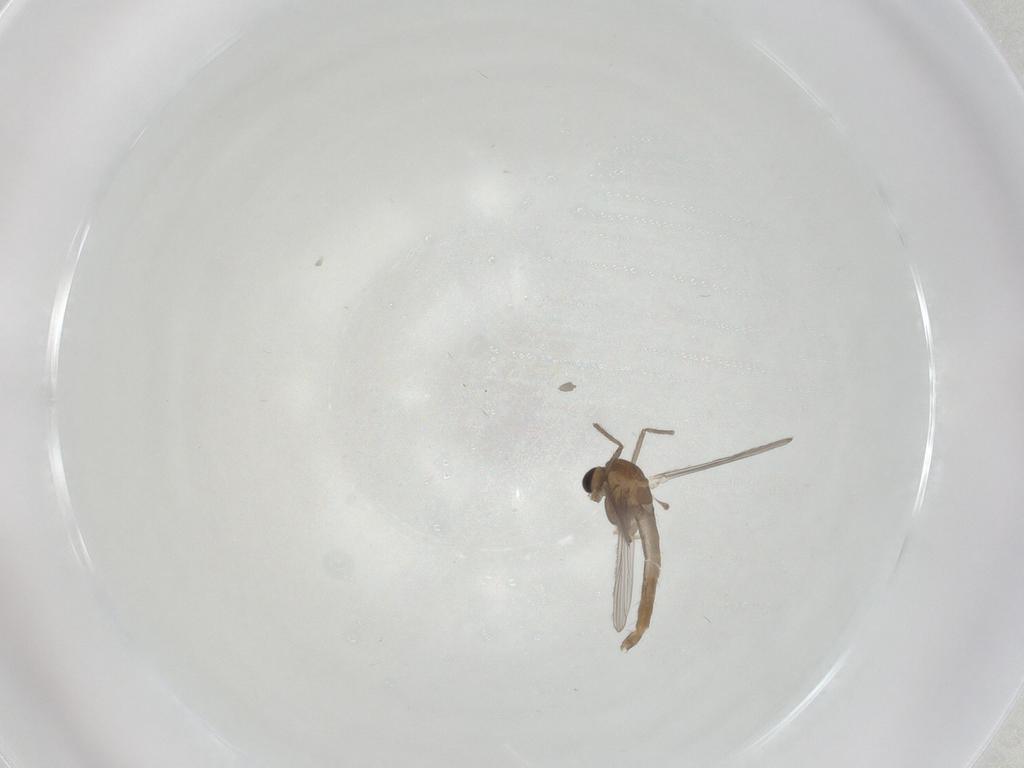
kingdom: Animalia
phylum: Arthropoda
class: Insecta
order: Diptera
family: Chironomidae
